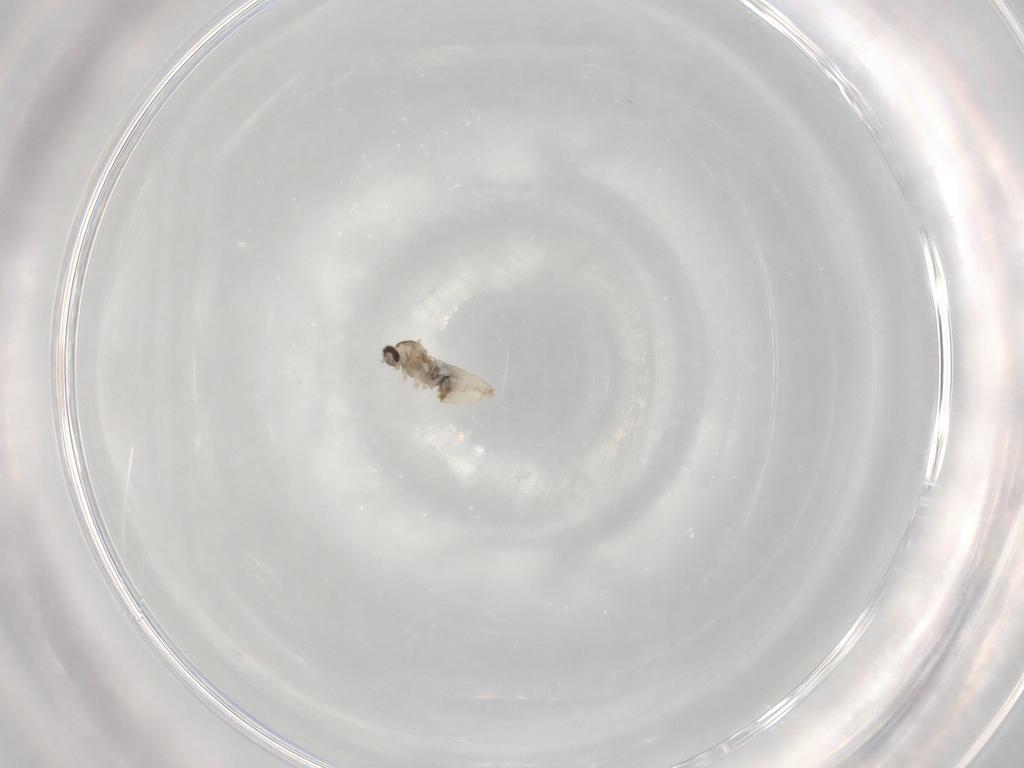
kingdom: Animalia
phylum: Arthropoda
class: Insecta
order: Diptera
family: Cecidomyiidae
